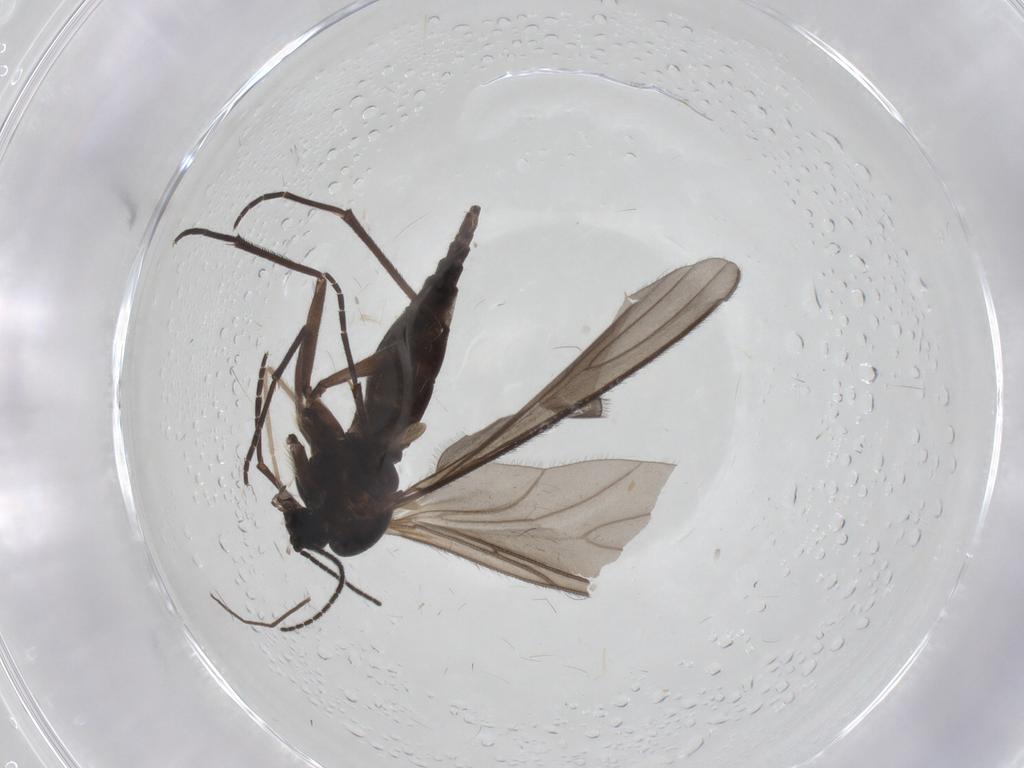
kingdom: Animalia
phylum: Arthropoda
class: Insecta
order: Diptera
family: Sciaridae
